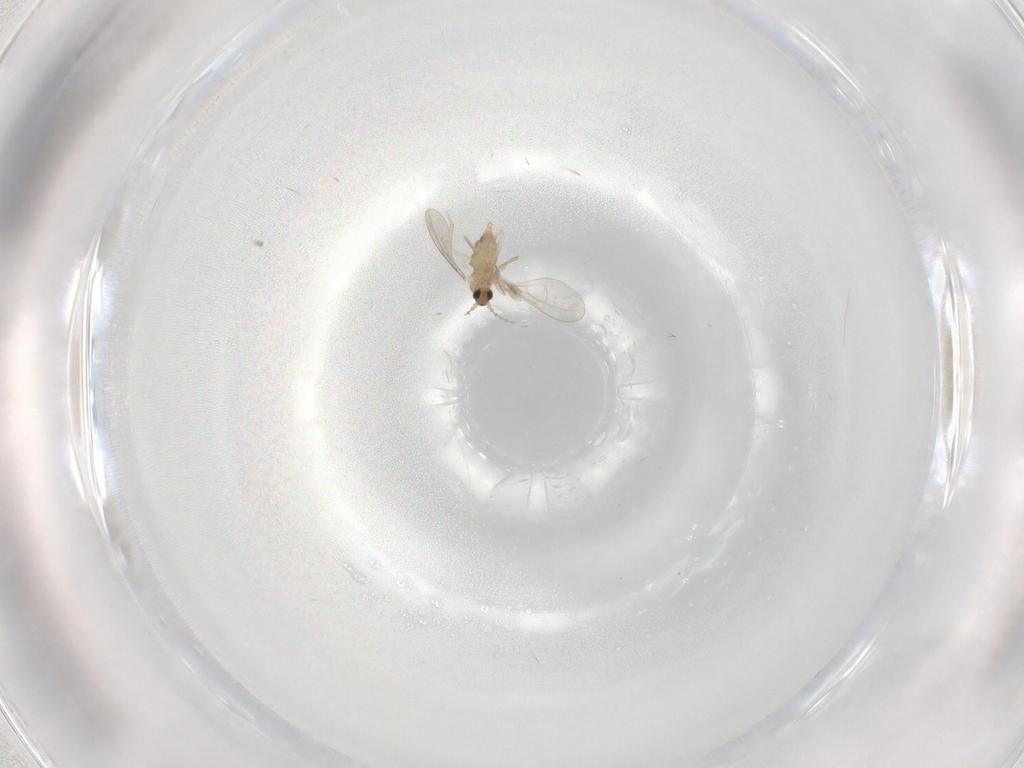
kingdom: Animalia
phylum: Arthropoda
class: Insecta
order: Diptera
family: Cecidomyiidae
